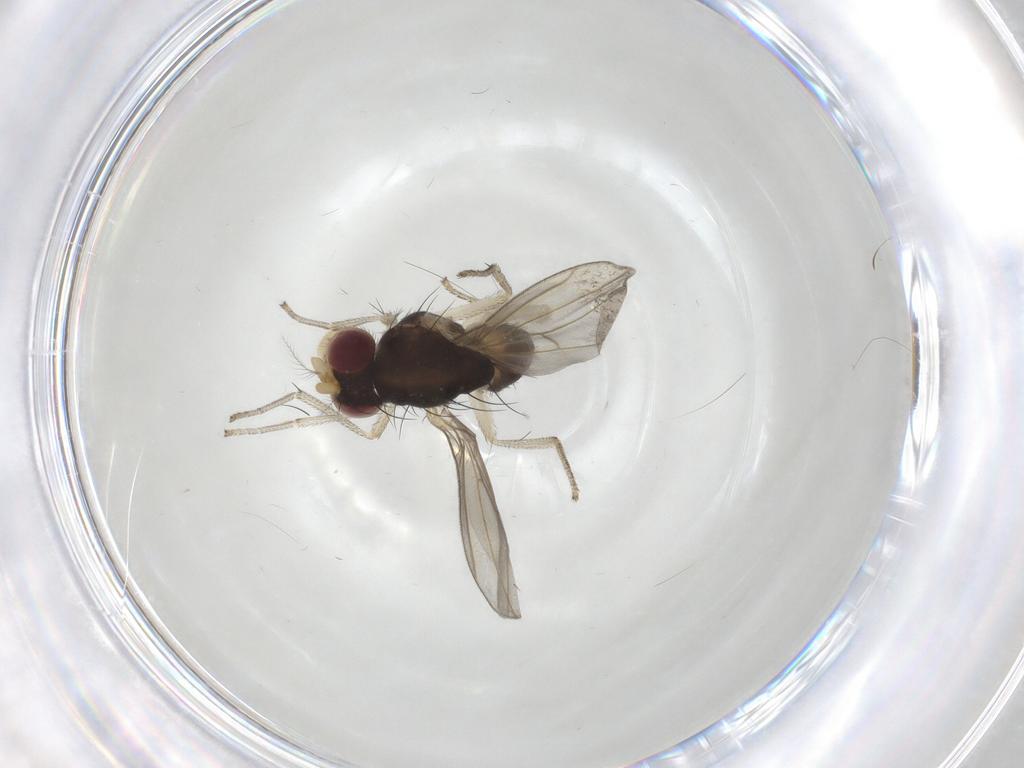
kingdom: Animalia
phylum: Arthropoda
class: Insecta
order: Diptera
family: Lauxaniidae
